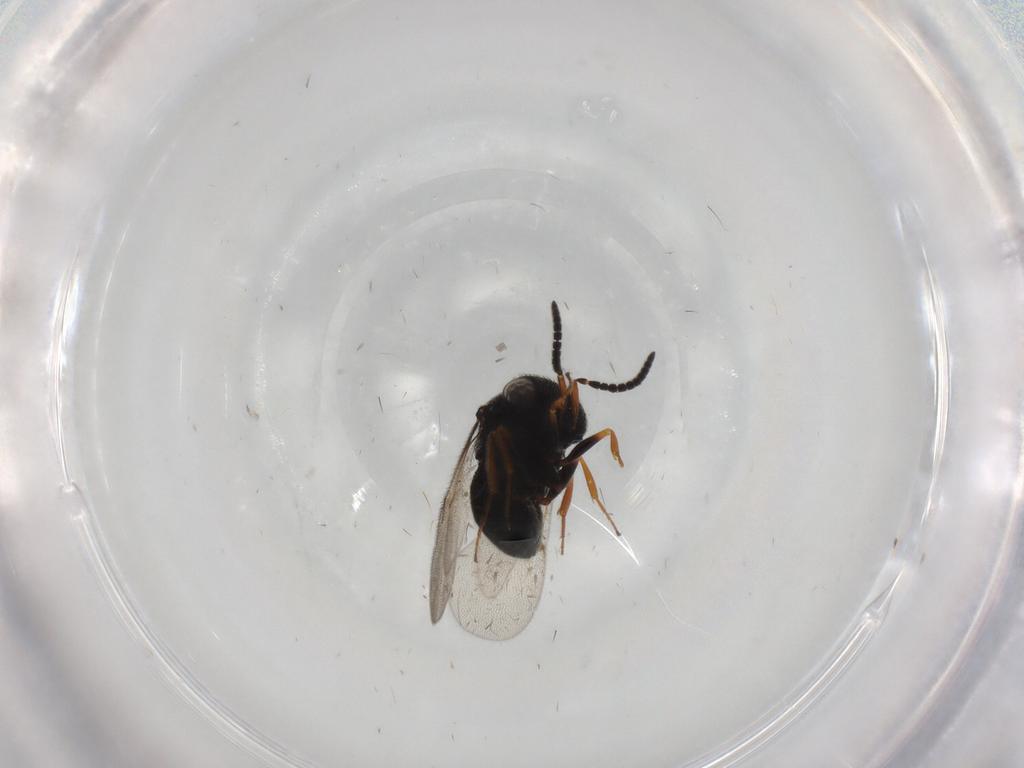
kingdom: Animalia
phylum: Arthropoda
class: Insecta
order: Hymenoptera
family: Scelionidae
